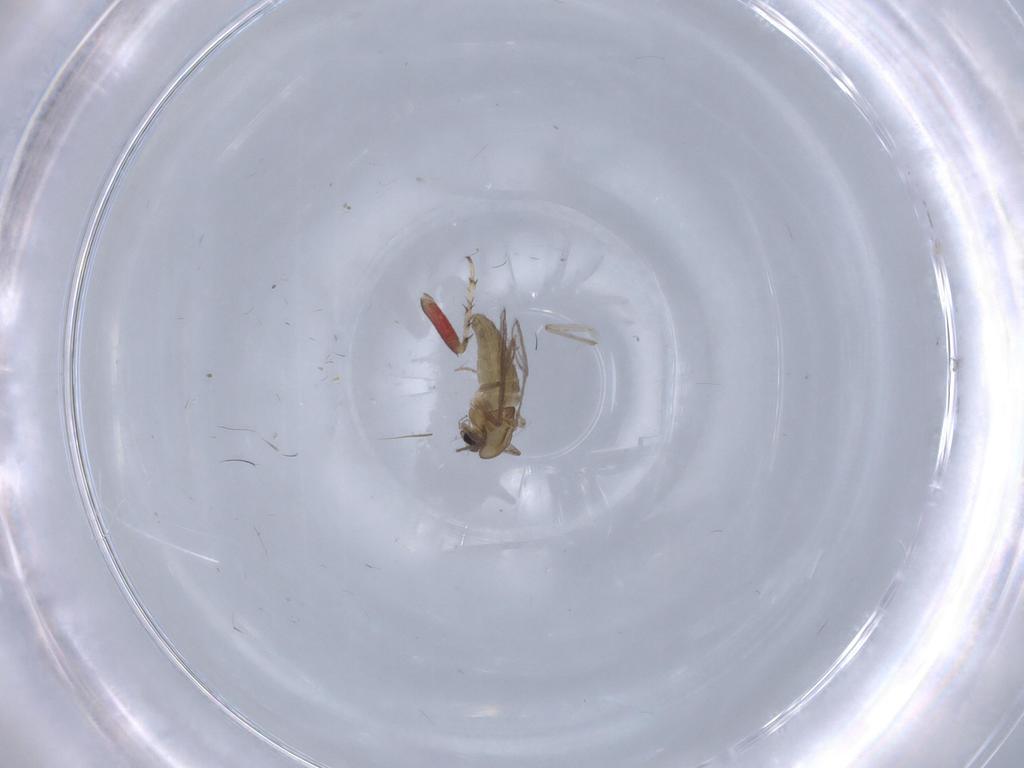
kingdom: Animalia
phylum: Arthropoda
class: Insecta
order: Diptera
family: Chironomidae
